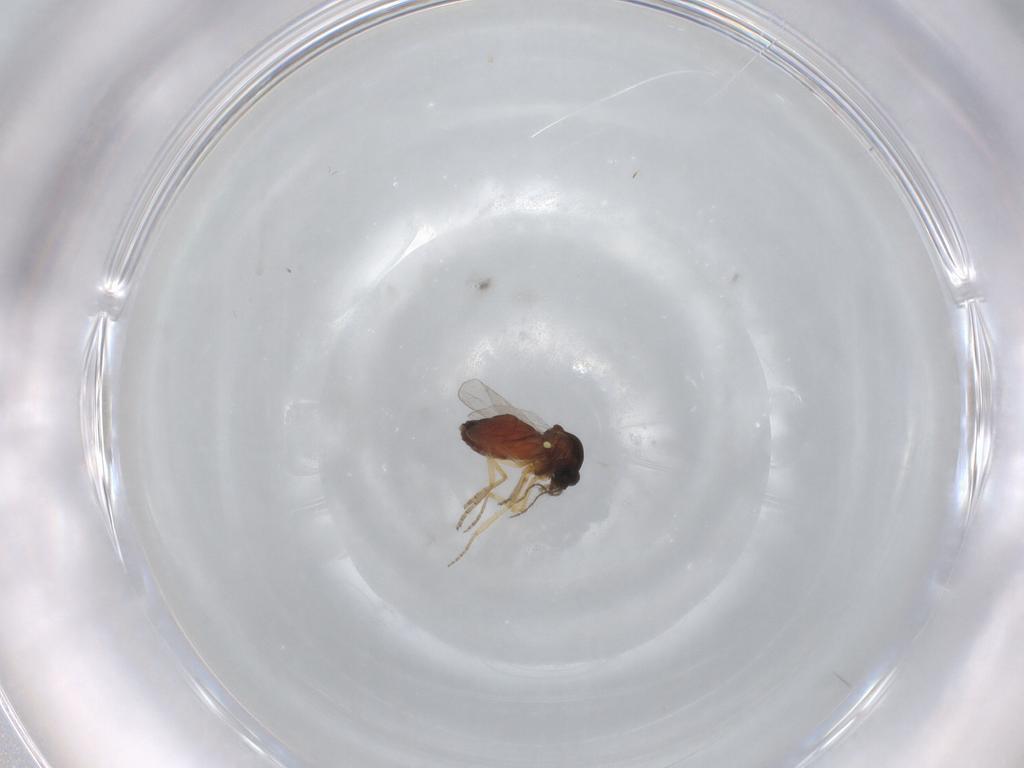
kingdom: Animalia
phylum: Arthropoda
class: Insecta
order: Diptera
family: Ceratopogonidae
